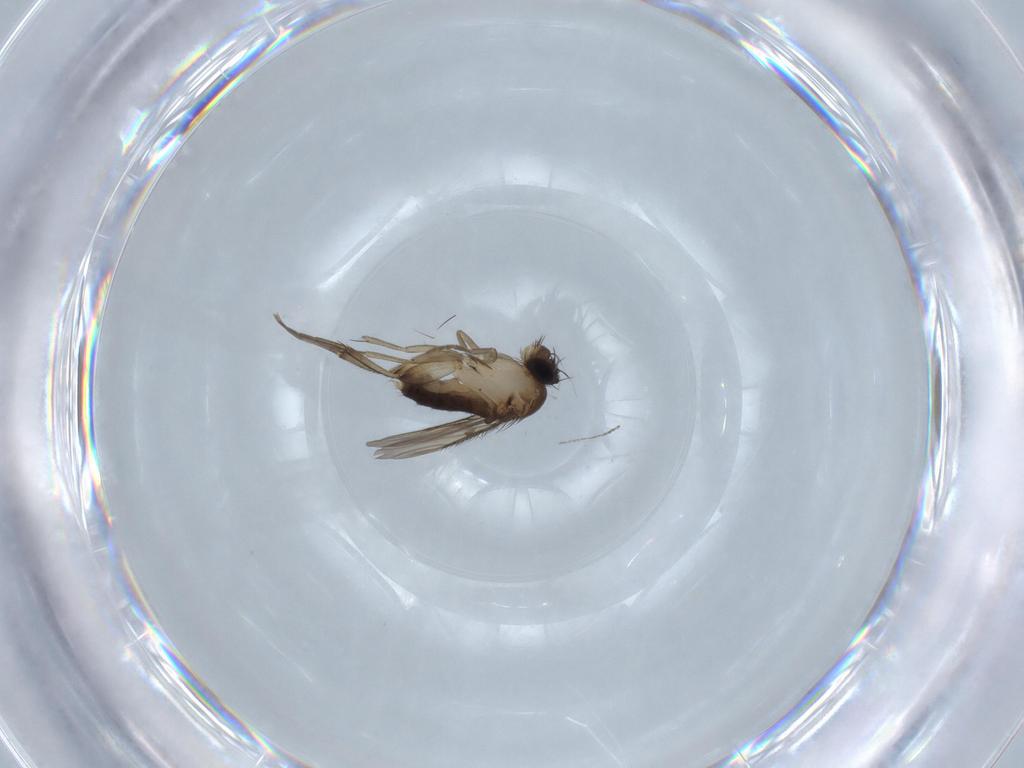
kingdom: Animalia
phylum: Arthropoda
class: Insecta
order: Diptera
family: Phoridae
